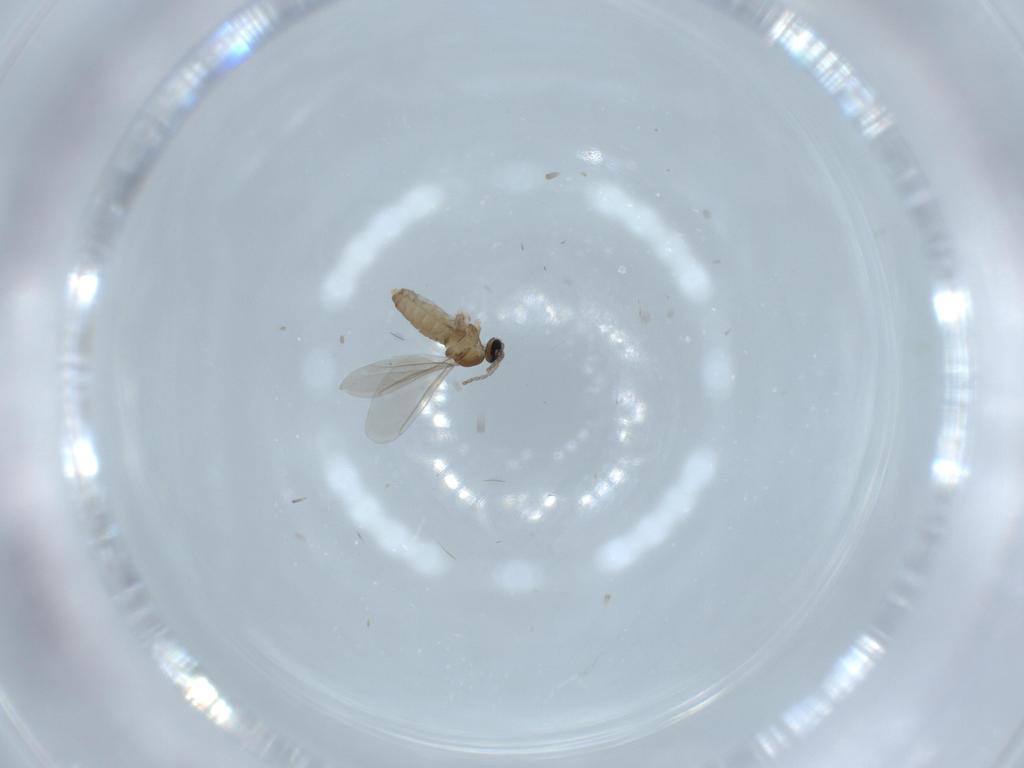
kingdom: Animalia
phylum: Arthropoda
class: Insecta
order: Diptera
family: Cecidomyiidae
